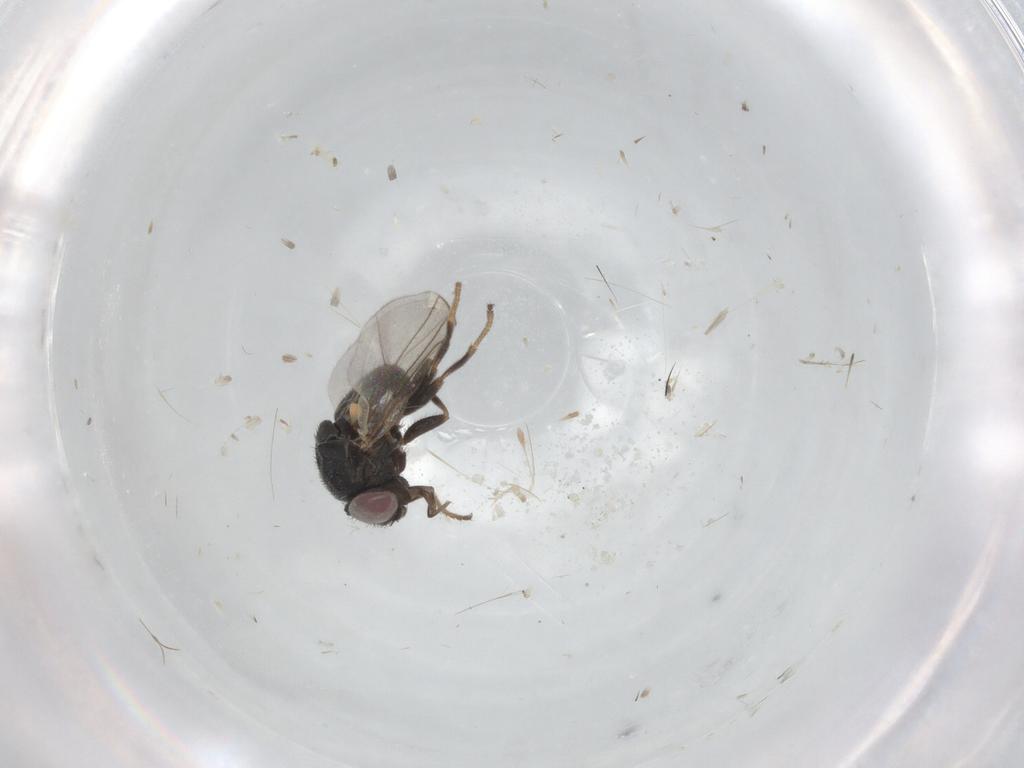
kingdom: Animalia
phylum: Arthropoda
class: Insecta
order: Diptera
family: Chloropidae
